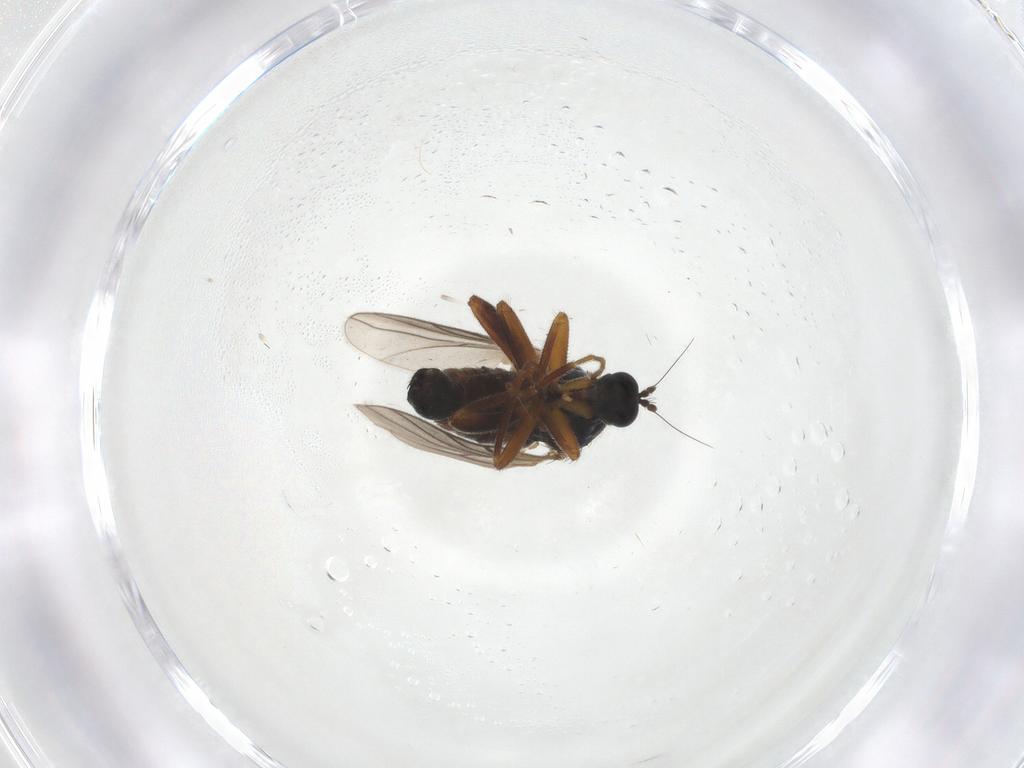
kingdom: Animalia
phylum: Arthropoda
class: Insecta
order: Diptera
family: Hybotidae
